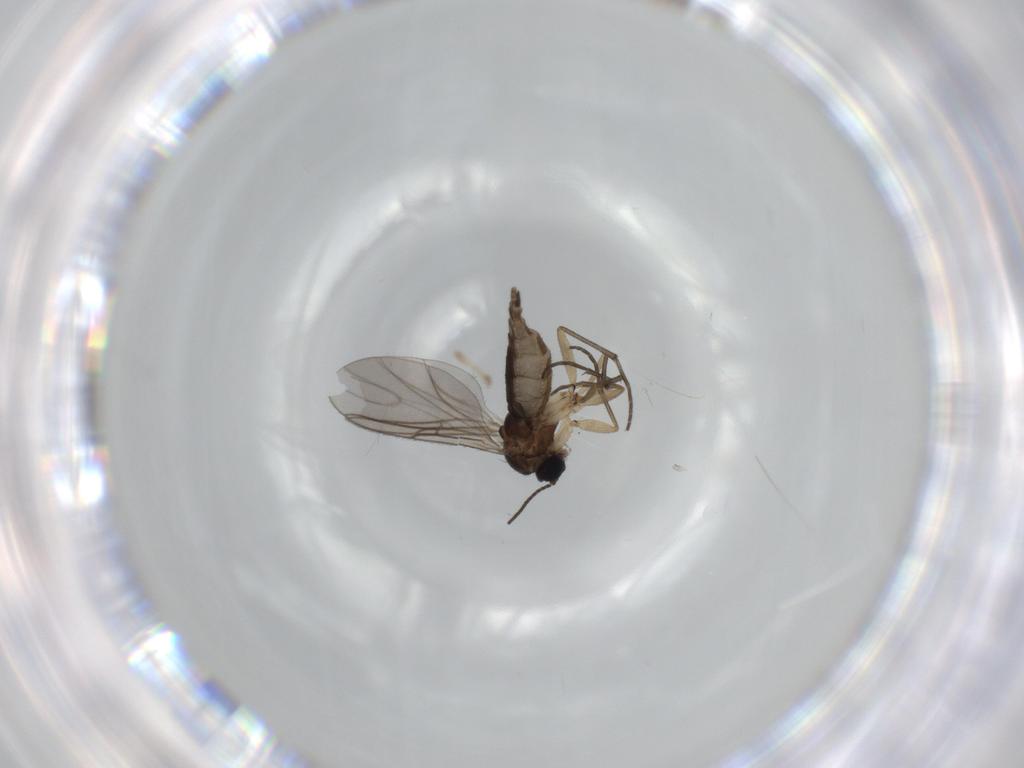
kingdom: Animalia
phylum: Arthropoda
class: Insecta
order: Diptera
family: Sciaridae
